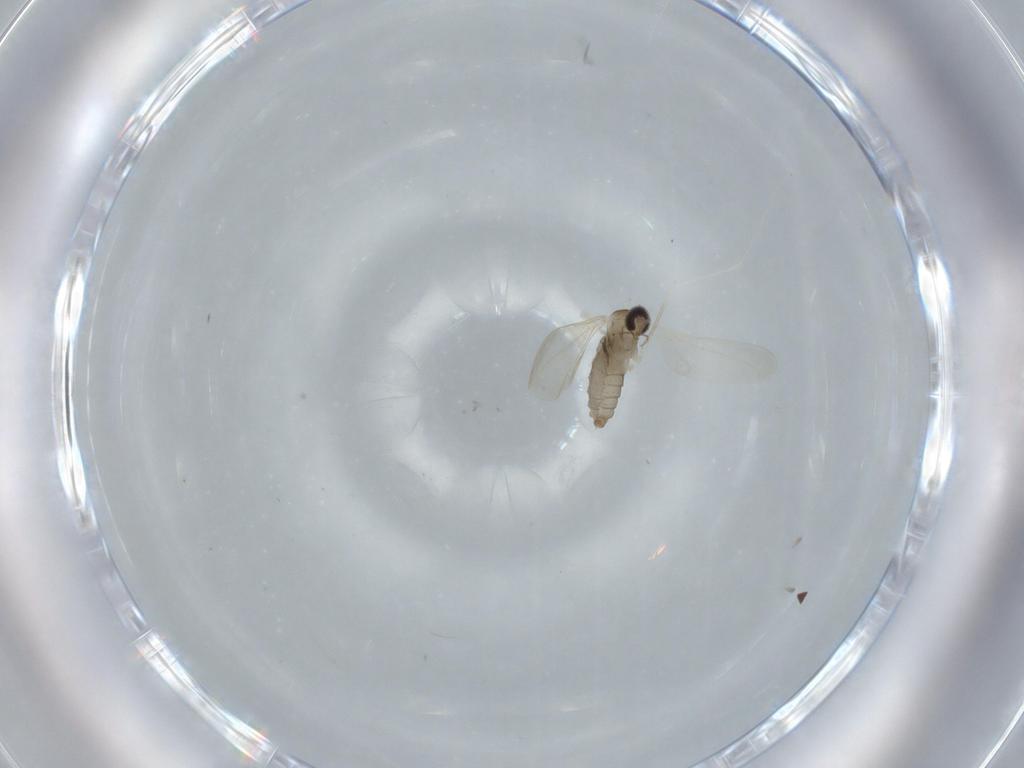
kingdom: Animalia
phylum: Arthropoda
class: Insecta
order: Diptera
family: Cecidomyiidae
